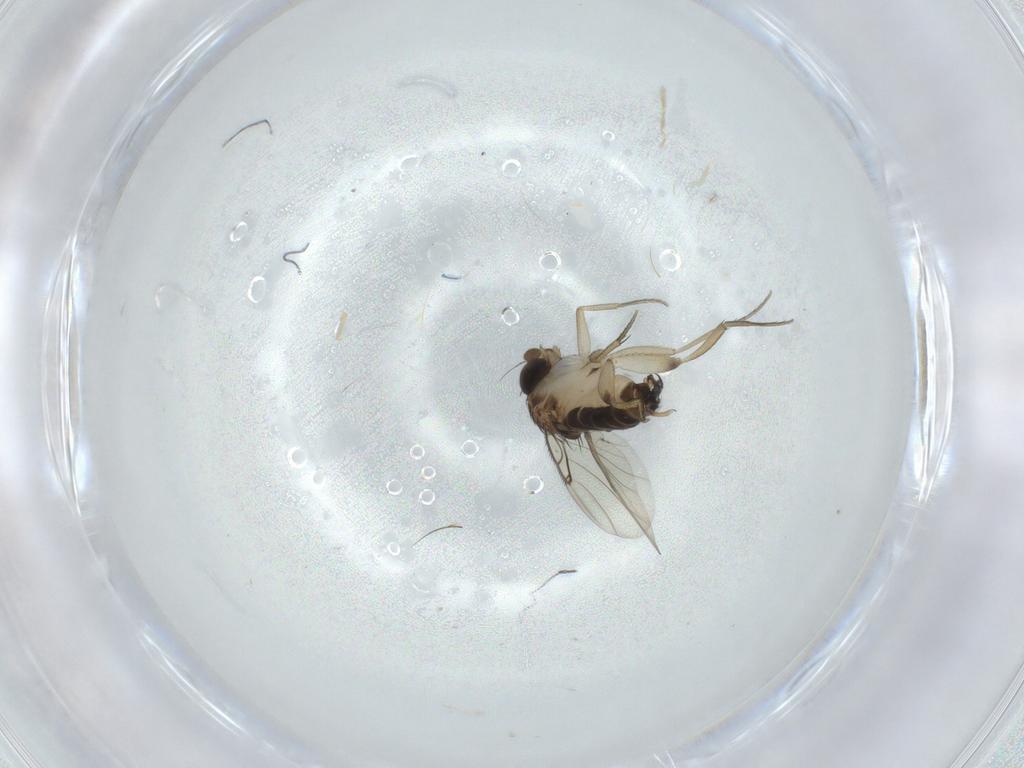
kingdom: Animalia
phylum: Arthropoda
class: Insecta
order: Diptera
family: Phoridae
